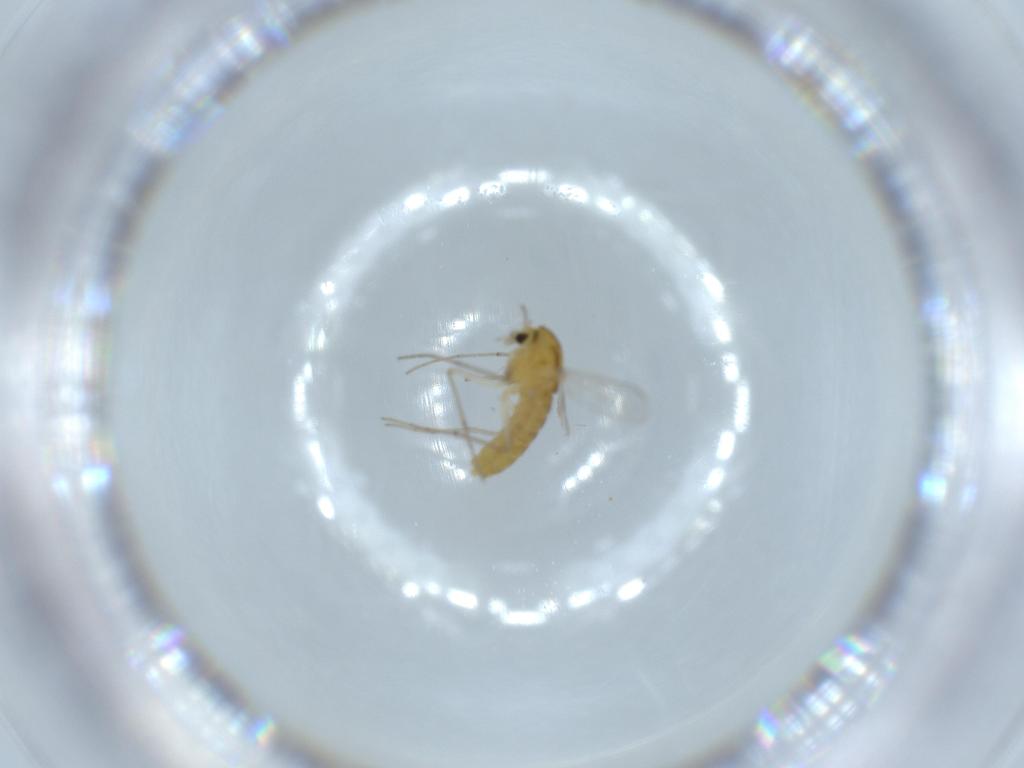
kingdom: Animalia
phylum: Arthropoda
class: Insecta
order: Diptera
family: Chironomidae
